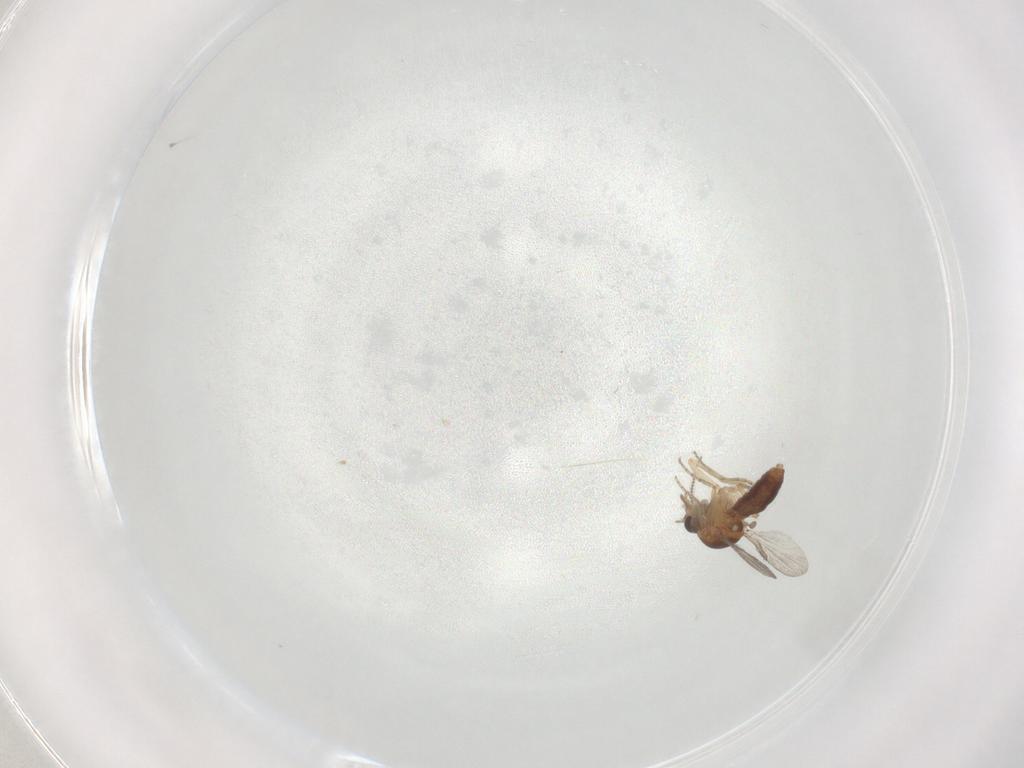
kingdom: Animalia
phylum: Arthropoda
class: Insecta
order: Diptera
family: Ceratopogonidae
